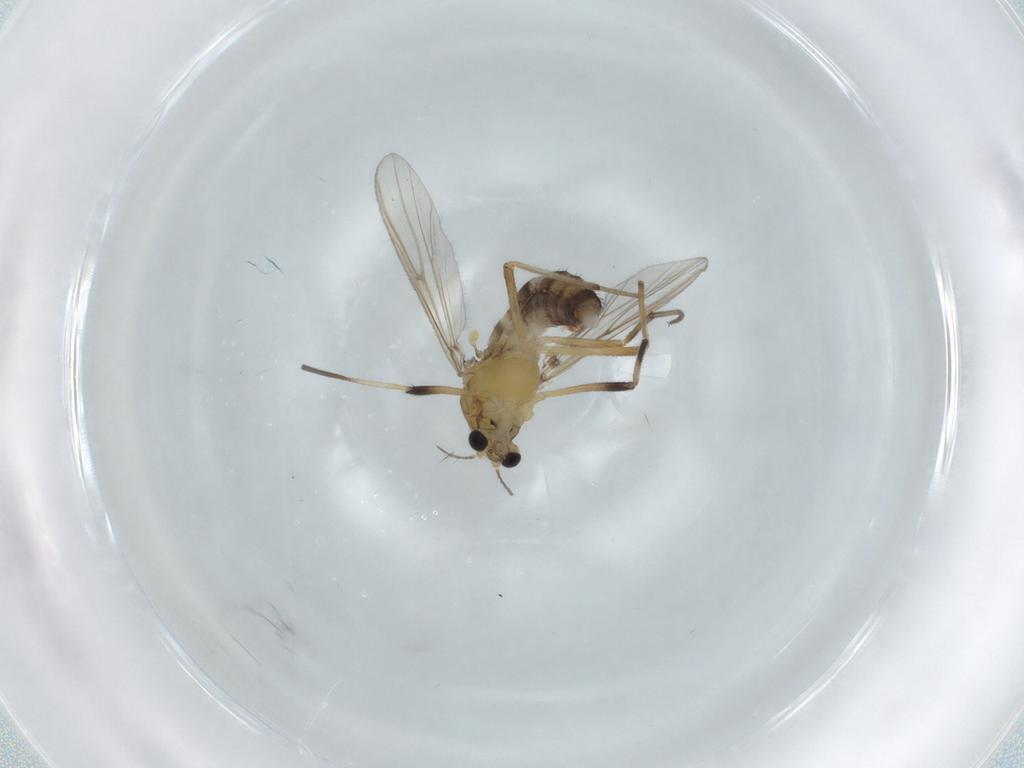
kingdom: Animalia
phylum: Arthropoda
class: Insecta
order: Diptera
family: Chironomidae
